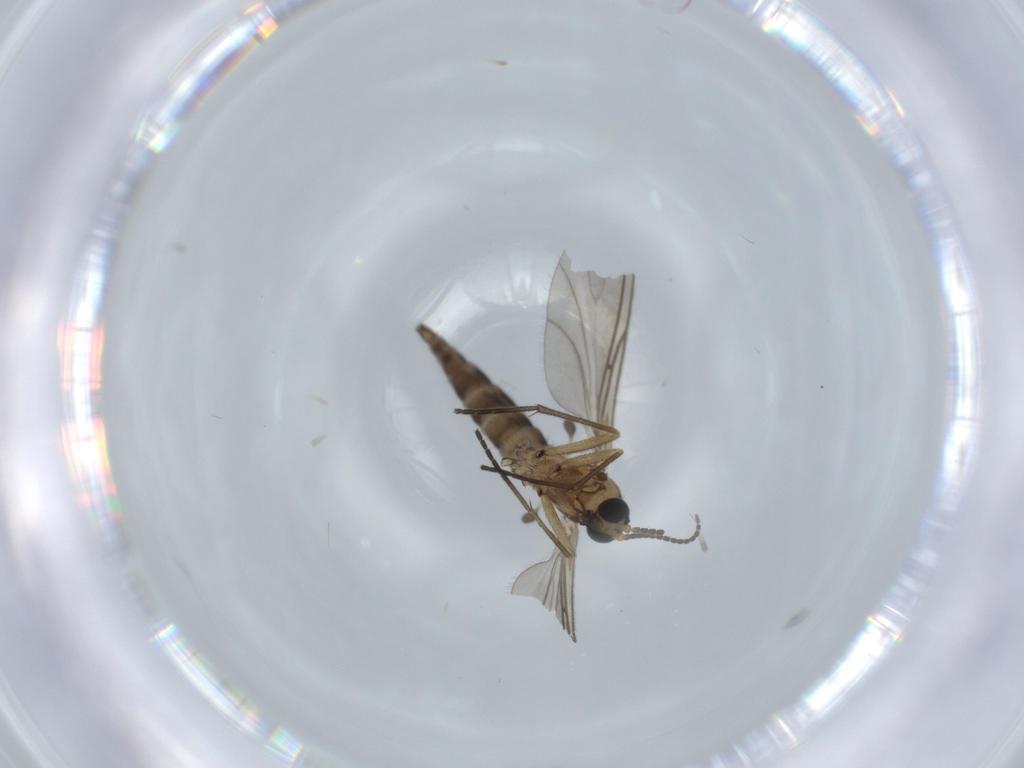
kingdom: Animalia
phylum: Arthropoda
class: Insecta
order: Diptera
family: Sciaridae
